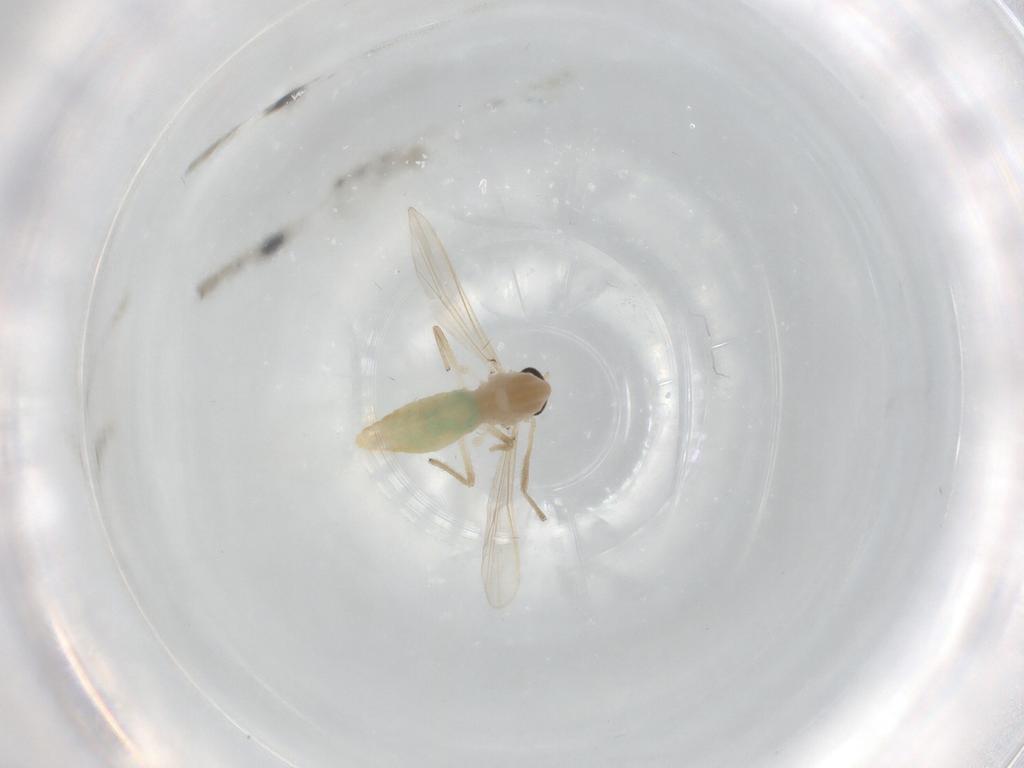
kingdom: Animalia
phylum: Arthropoda
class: Insecta
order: Diptera
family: Chironomidae
